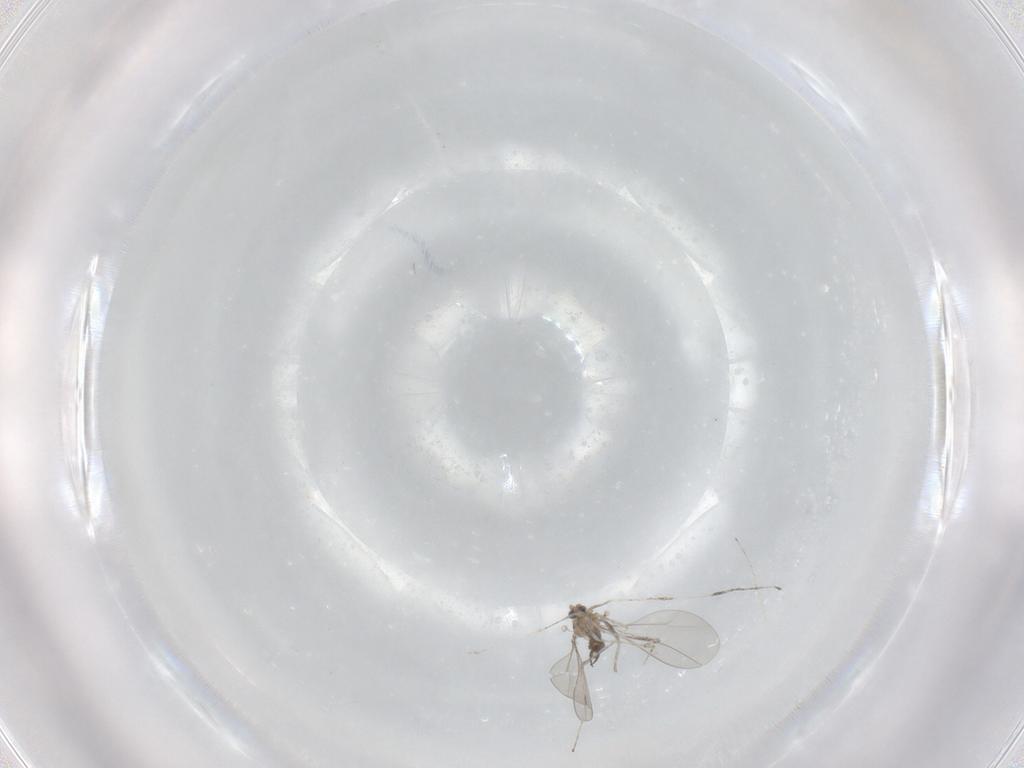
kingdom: Animalia
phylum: Arthropoda
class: Insecta
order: Diptera
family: Cecidomyiidae
